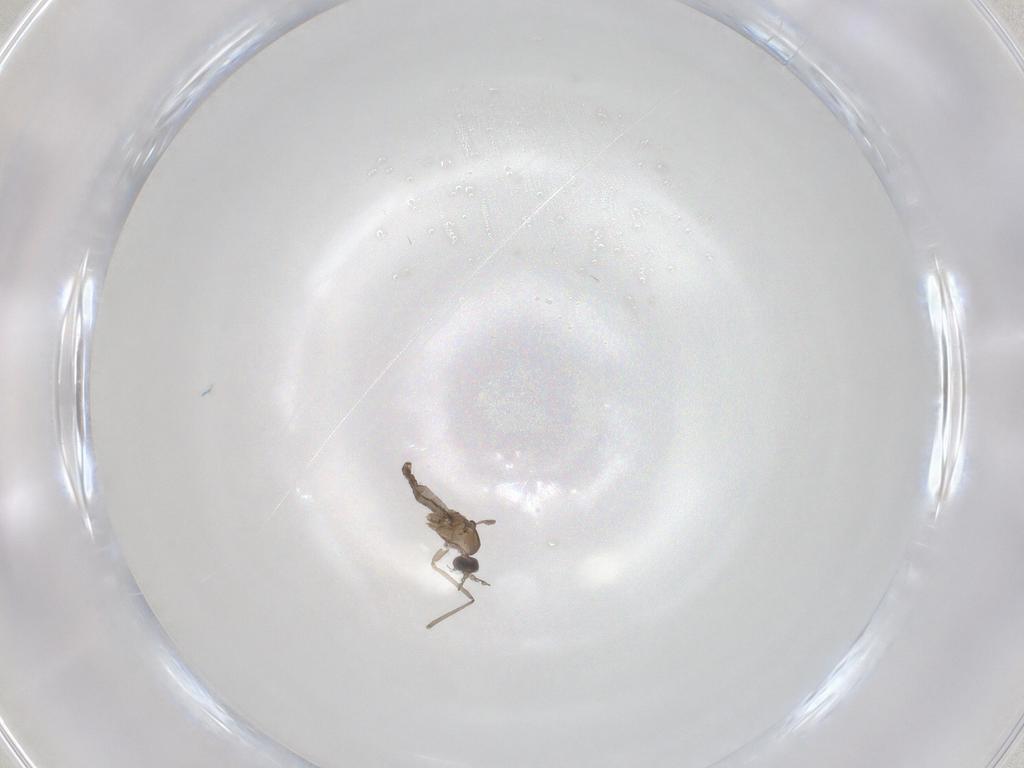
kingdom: Animalia
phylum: Arthropoda
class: Insecta
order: Diptera
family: Cecidomyiidae
